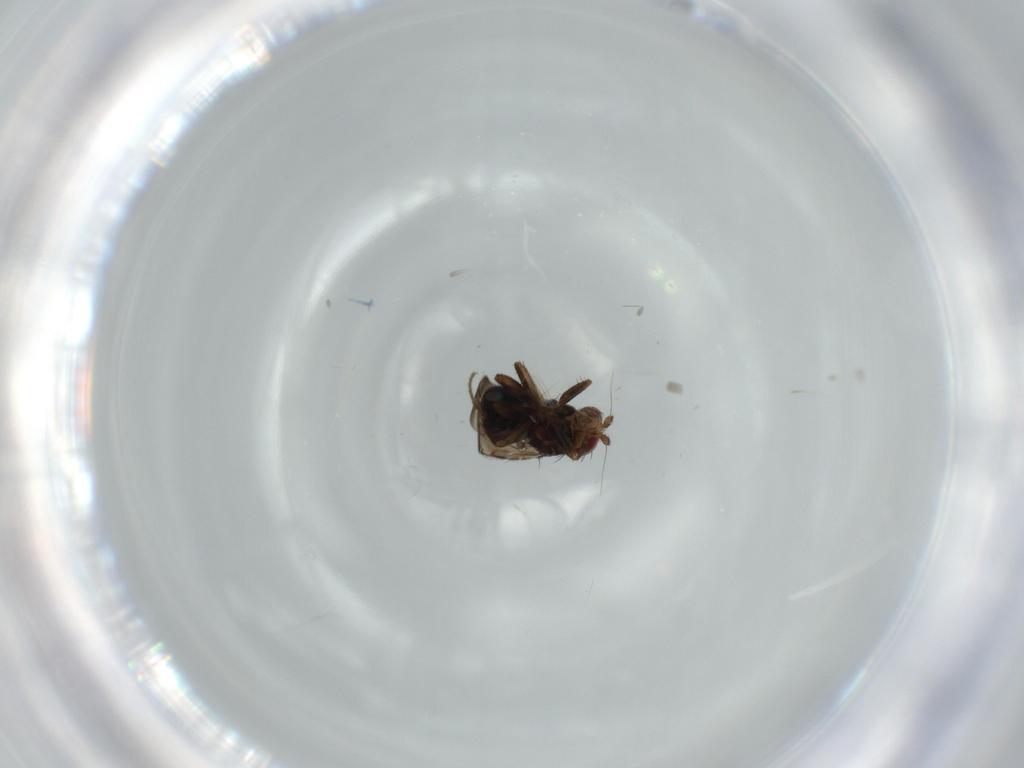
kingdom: Animalia
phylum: Arthropoda
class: Insecta
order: Diptera
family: Sphaeroceridae
